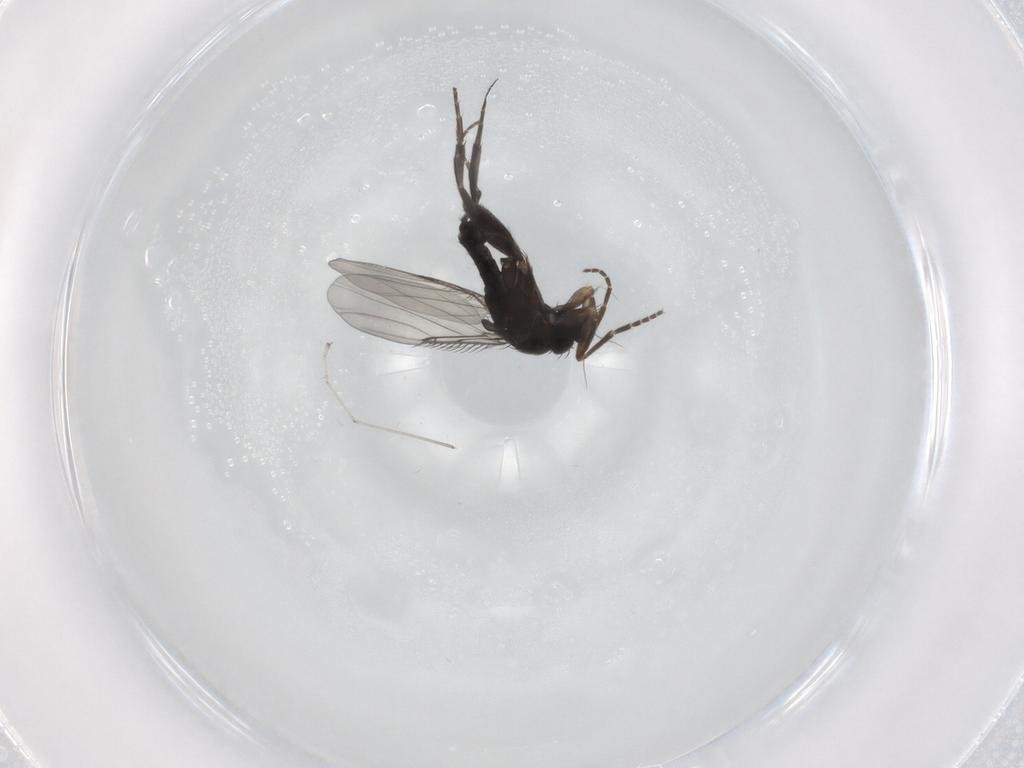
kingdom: Animalia
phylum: Arthropoda
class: Insecta
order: Diptera
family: Phoridae
